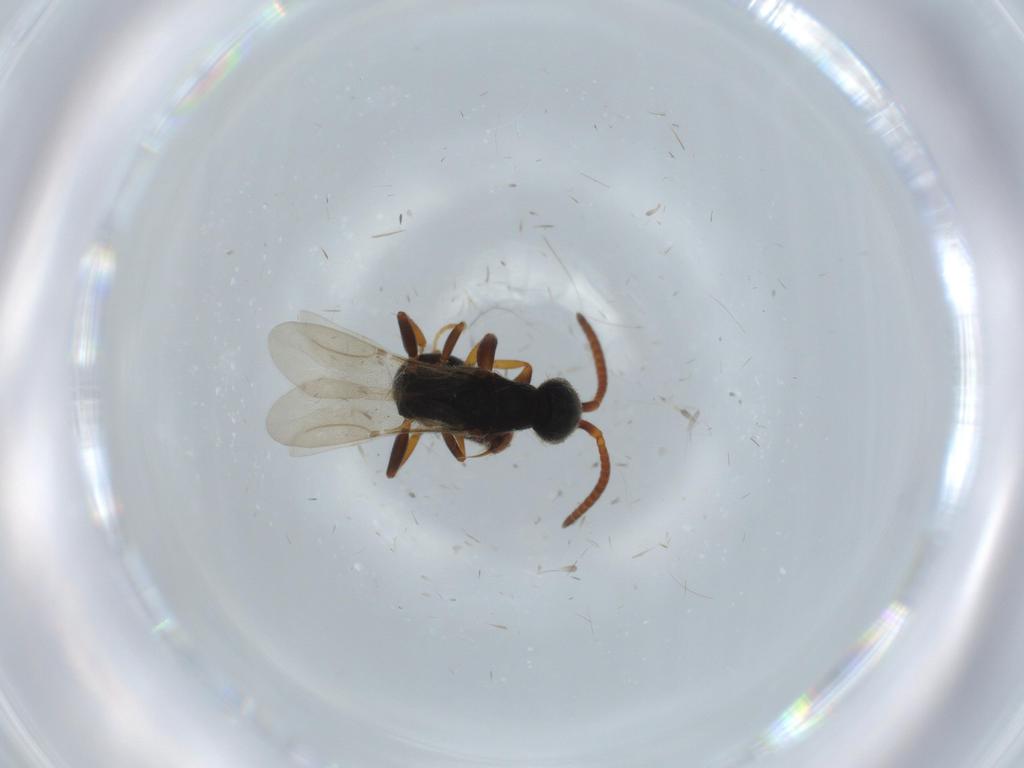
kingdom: Animalia
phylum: Arthropoda
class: Insecta
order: Hymenoptera
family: Bethylidae
